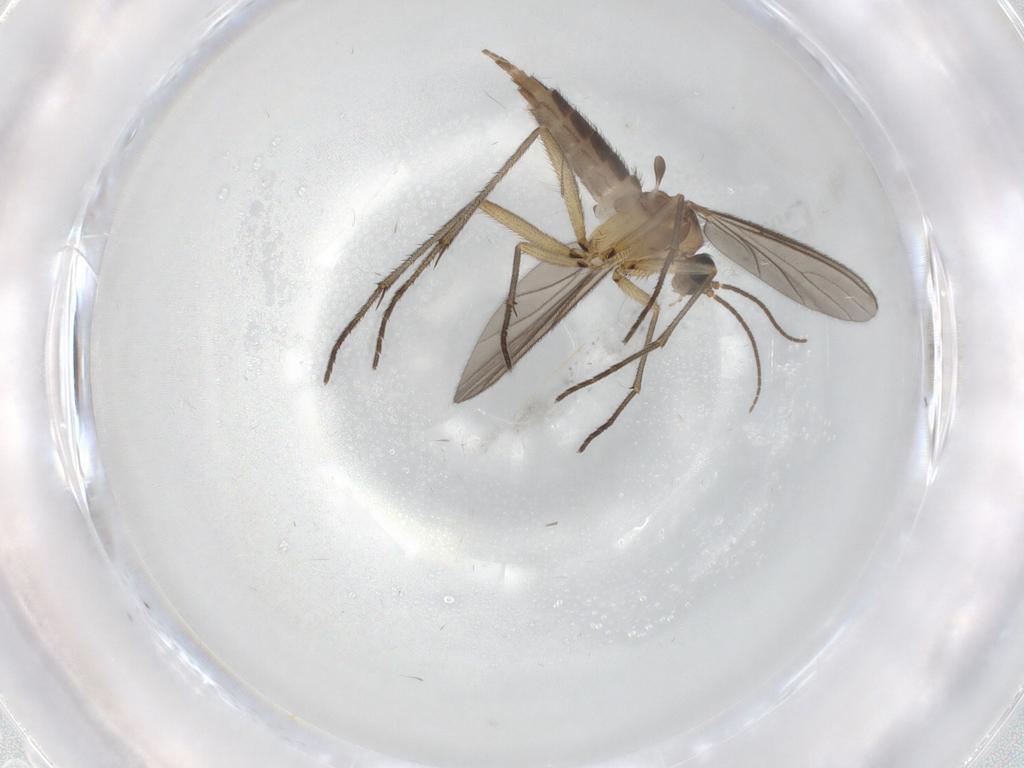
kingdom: Animalia
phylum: Arthropoda
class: Insecta
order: Diptera
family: Sciaridae
